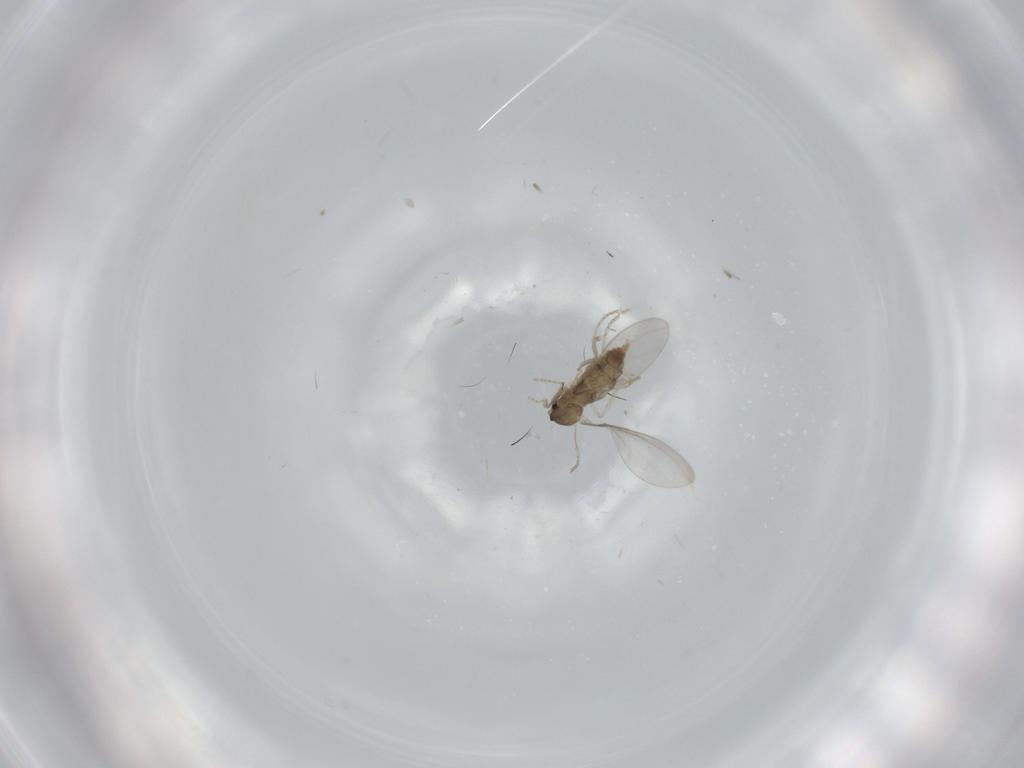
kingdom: Animalia
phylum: Arthropoda
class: Insecta
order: Diptera
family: Cecidomyiidae
